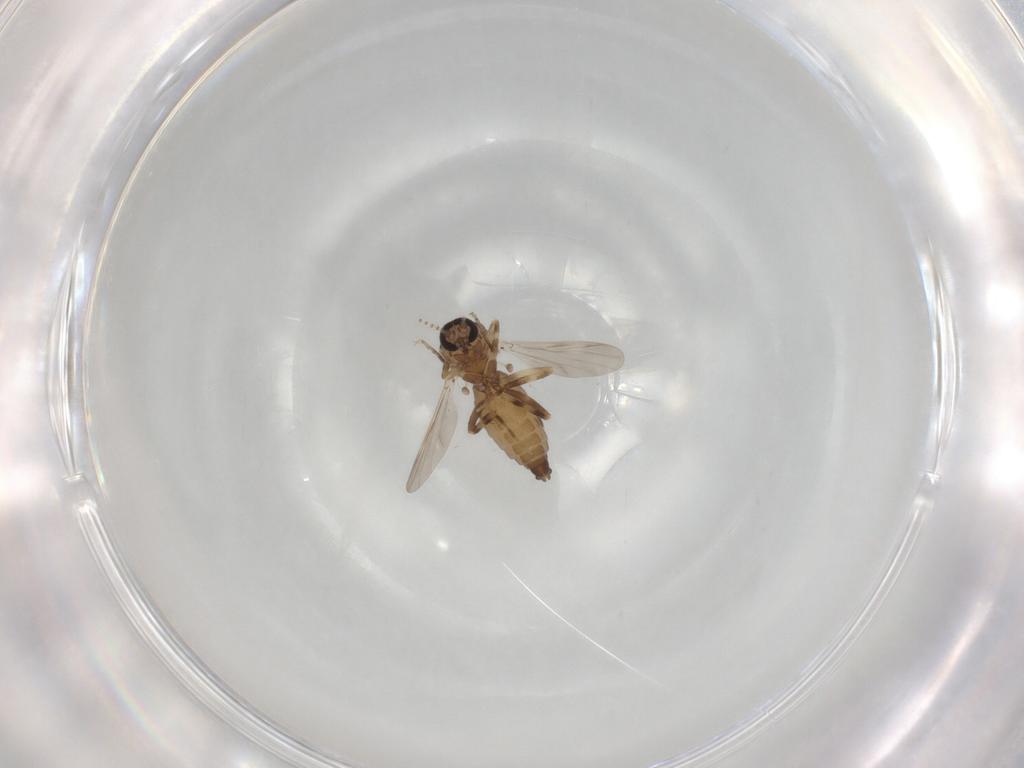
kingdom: Animalia
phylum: Arthropoda
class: Insecta
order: Diptera
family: Ceratopogonidae
